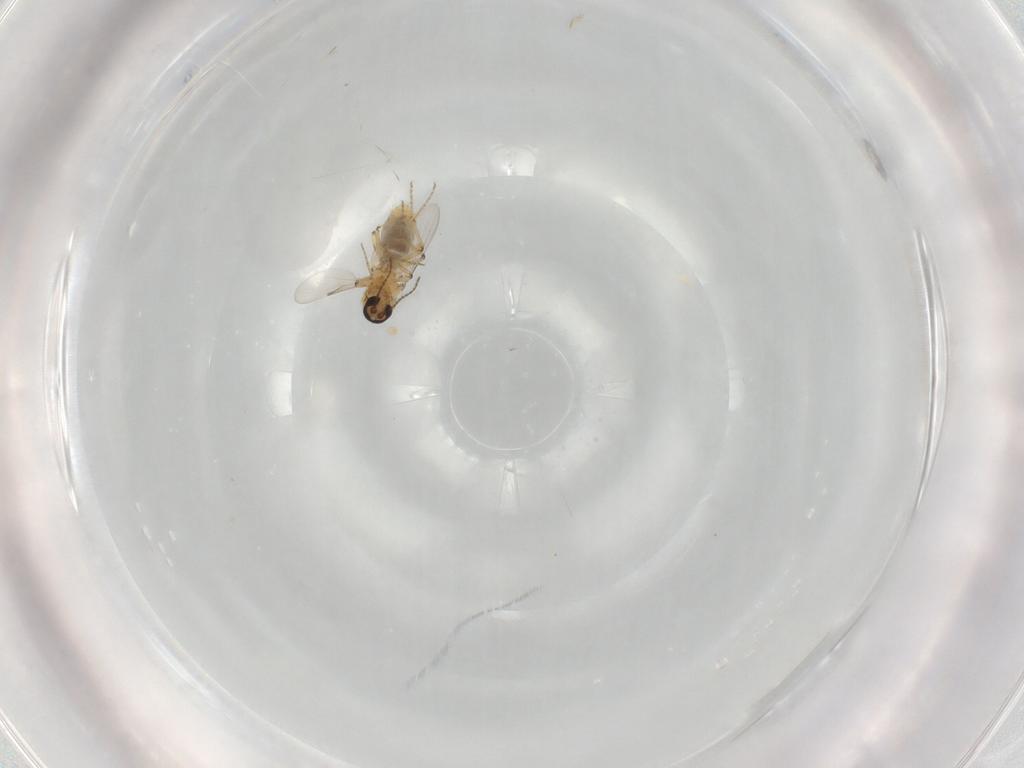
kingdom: Animalia
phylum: Arthropoda
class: Insecta
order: Diptera
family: Ceratopogonidae
